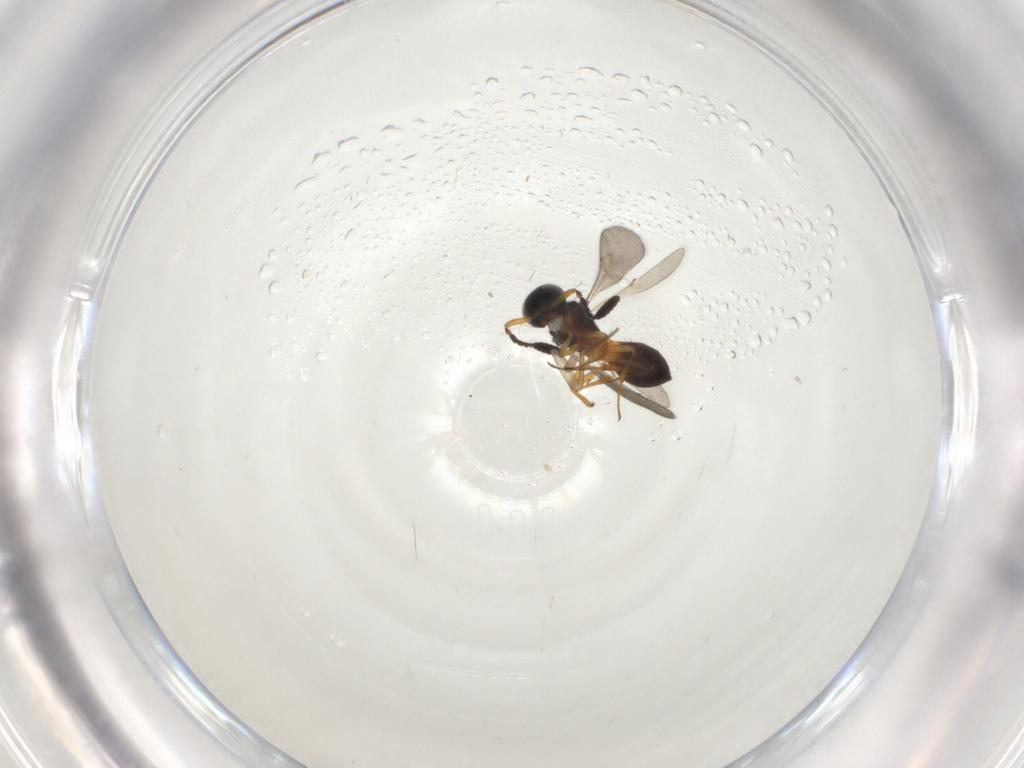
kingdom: Animalia
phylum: Arthropoda
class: Insecta
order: Hymenoptera
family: Scelionidae
